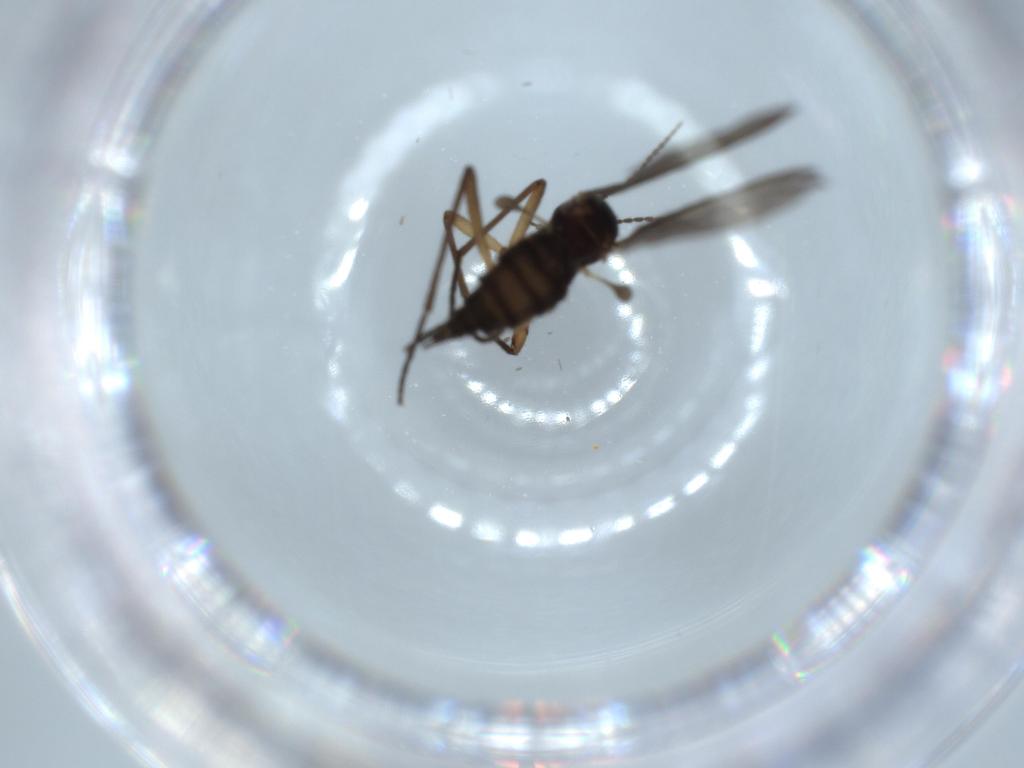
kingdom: Animalia
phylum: Arthropoda
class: Insecta
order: Diptera
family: Sciaridae
